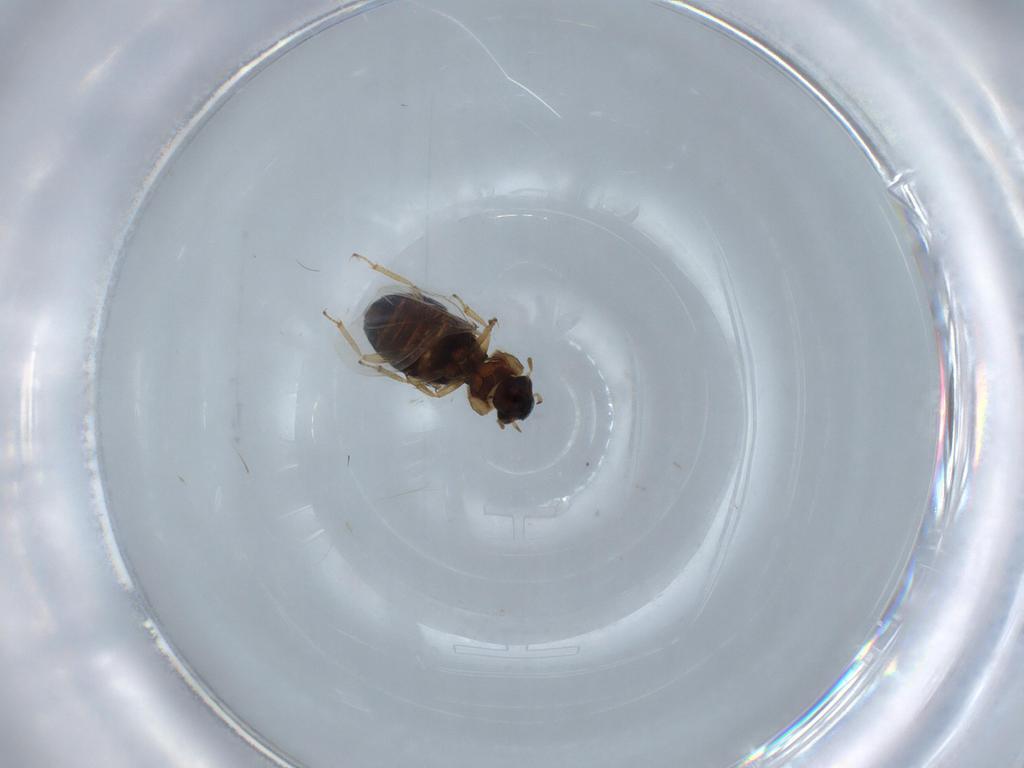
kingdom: Animalia
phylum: Arthropoda
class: Insecta
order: Coleoptera
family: Hydraenidae
